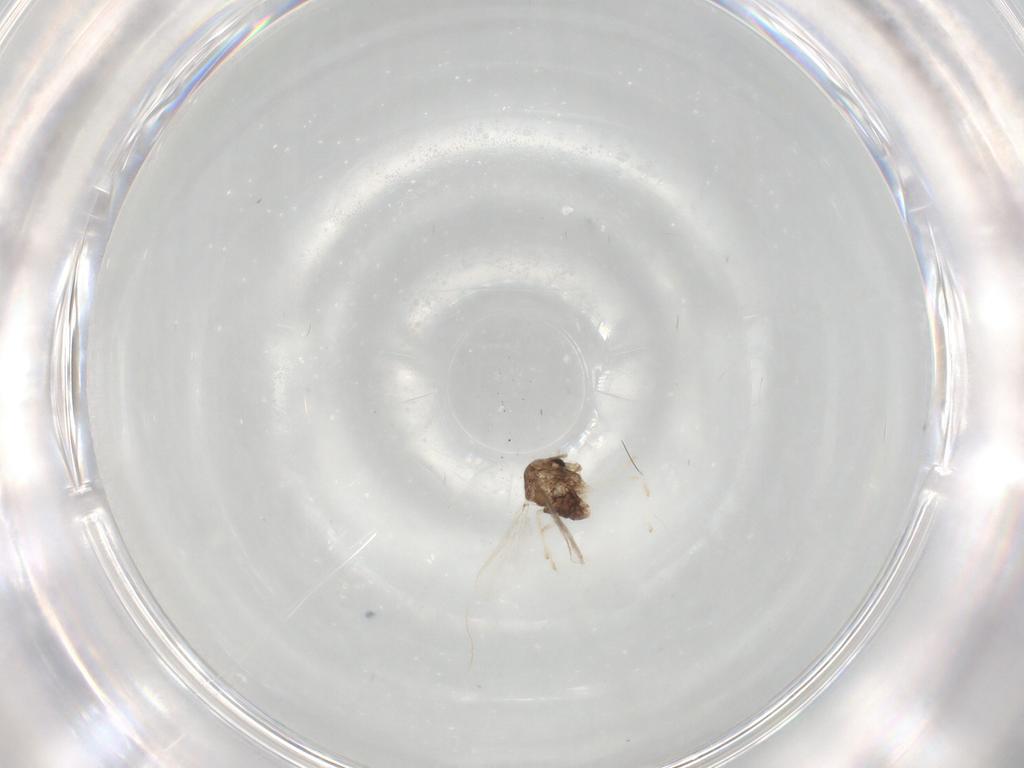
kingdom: Animalia
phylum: Arthropoda
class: Insecta
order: Diptera
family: Chironomidae
